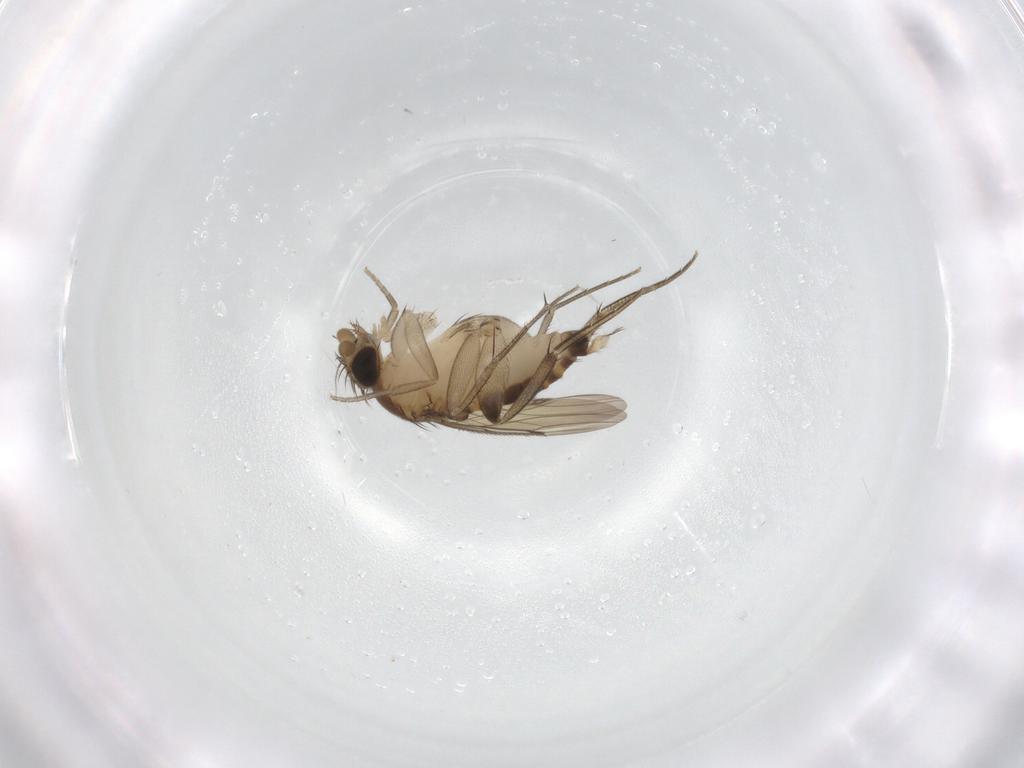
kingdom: Animalia
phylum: Arthropoda
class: Insecta
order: Diptera
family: Phoridae
